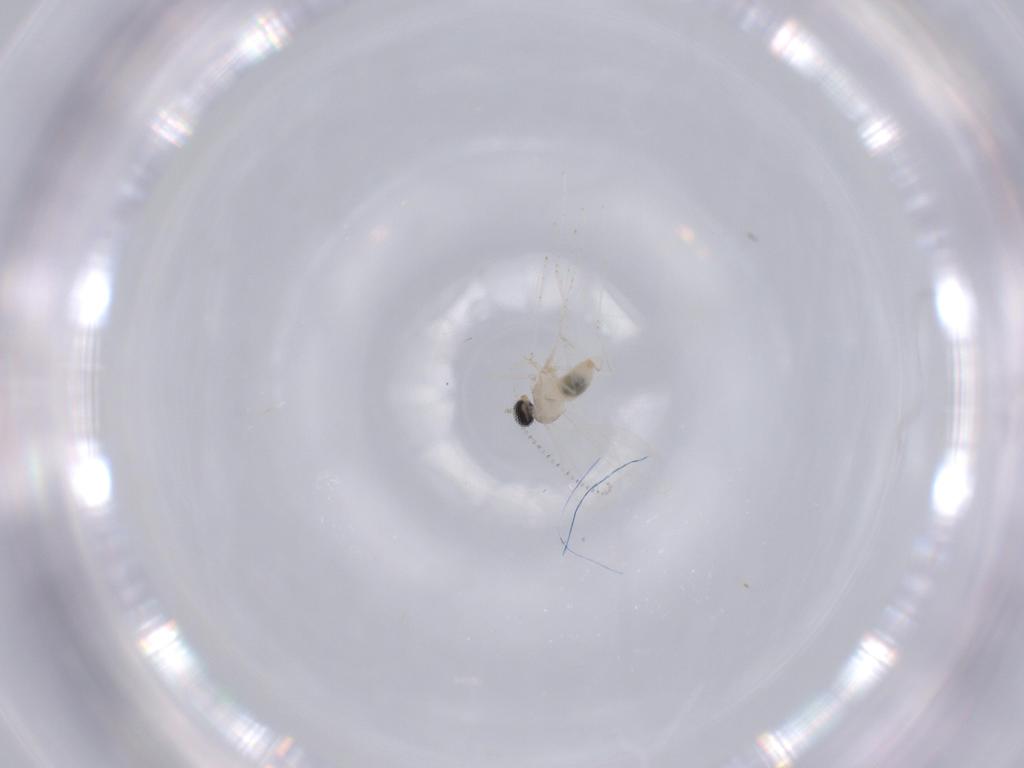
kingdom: Animalia
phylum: Arthropoda
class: Insecta
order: Diptera
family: Cecidomyiidae
